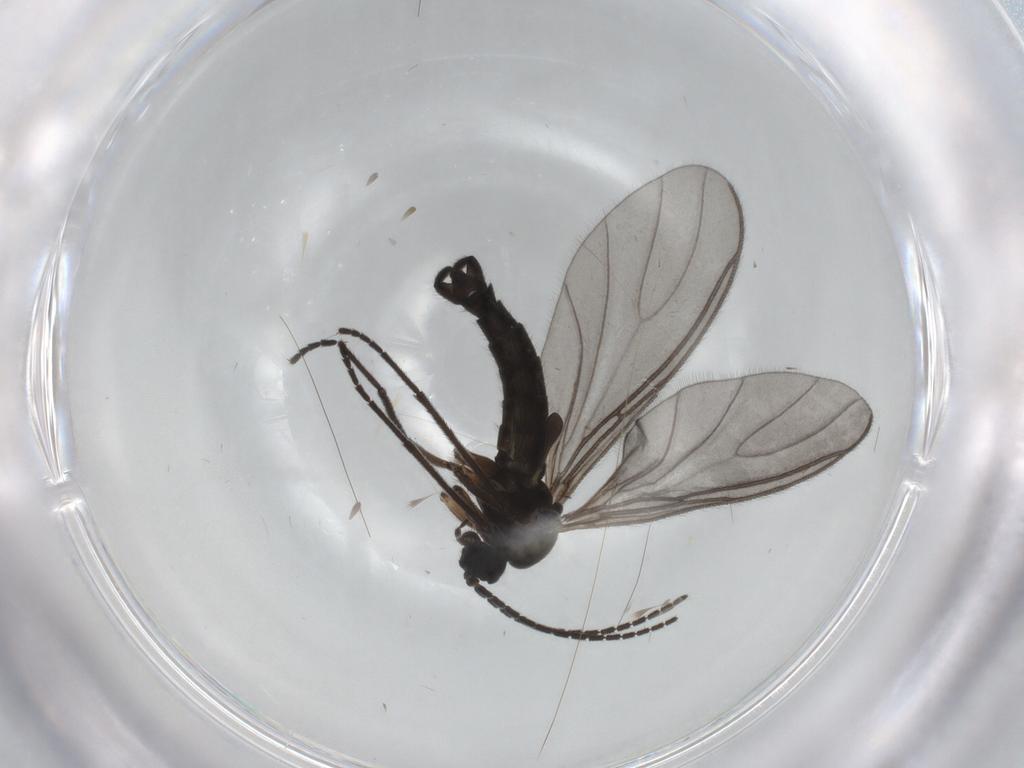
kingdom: Animalia
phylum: Arthropoda
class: Insecta
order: Diptera
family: Sciaridae
